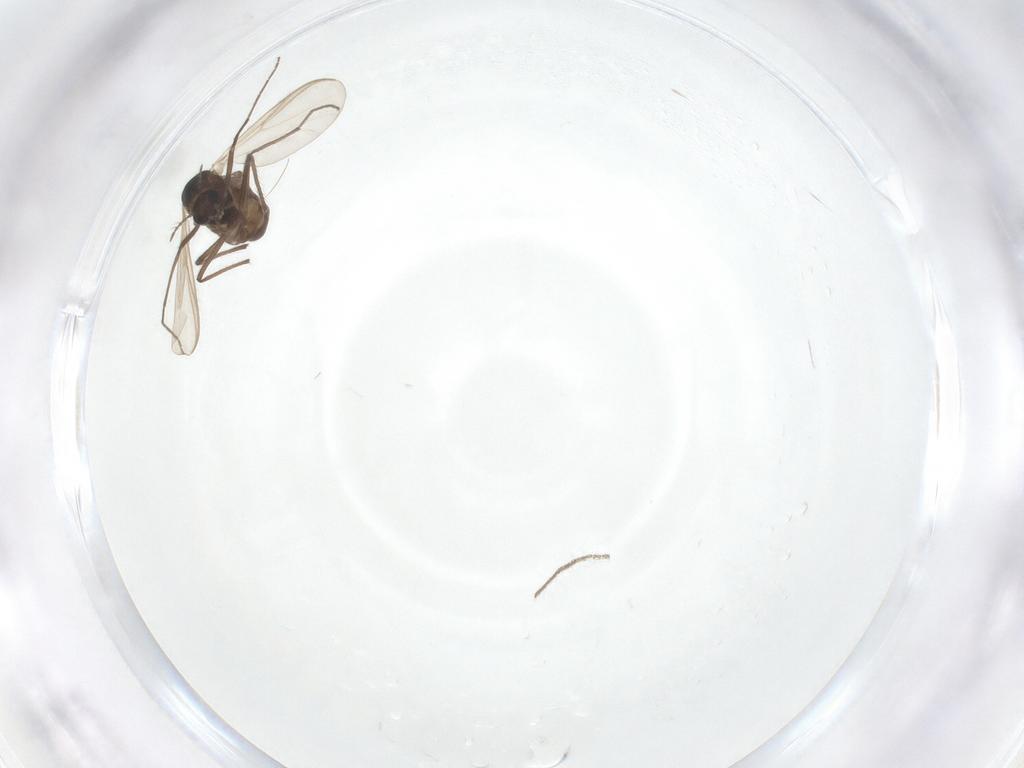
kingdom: Animalia
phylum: Arthropoda
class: Insecta
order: Diptera
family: Chironomidae
